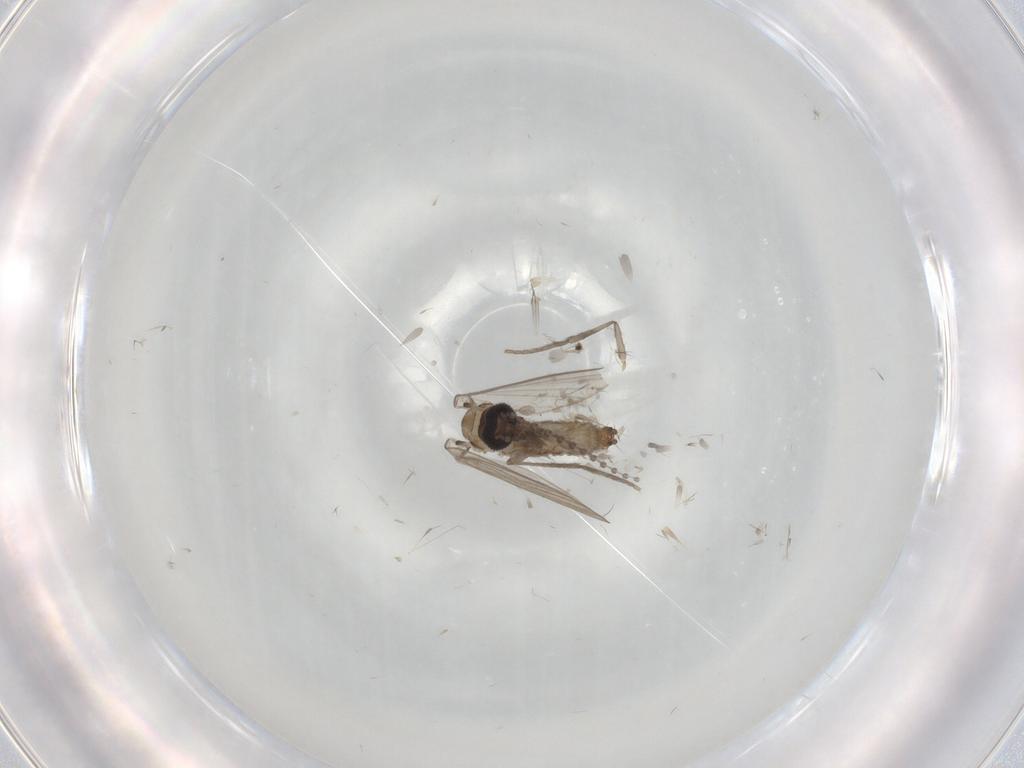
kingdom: Animalia
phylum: Arthropoda
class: Insecta
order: Diptera
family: Psychodidae
